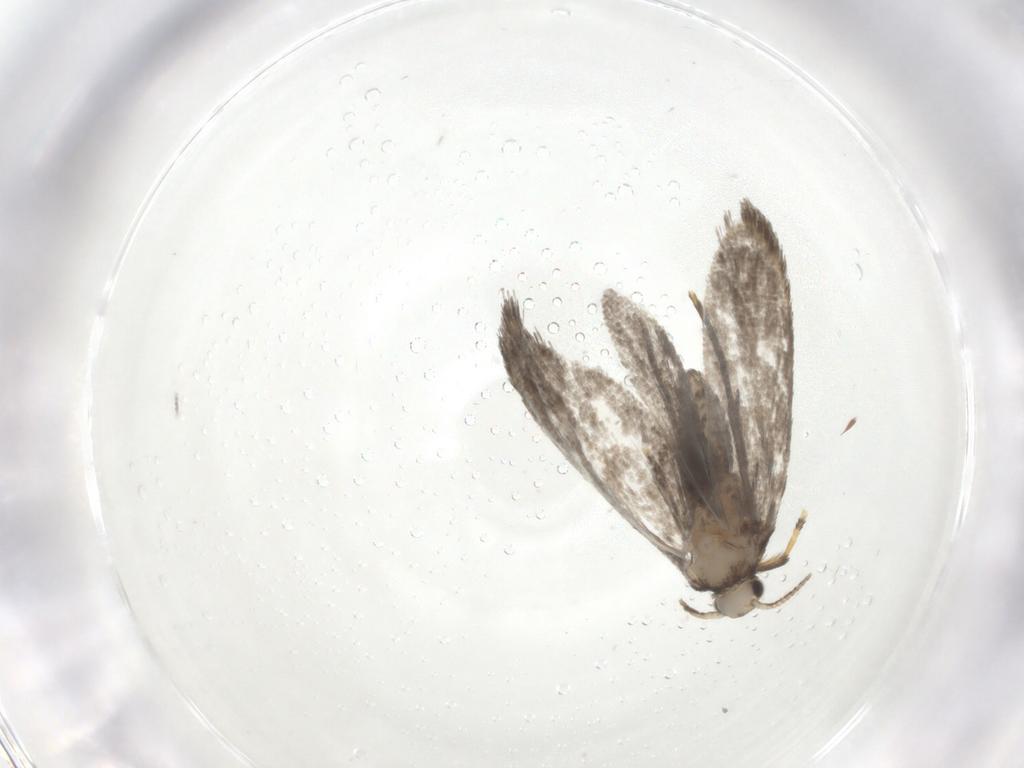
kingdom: Animalia
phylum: Arthropoda
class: Insecta
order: Lepidoptera
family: Psychidae
